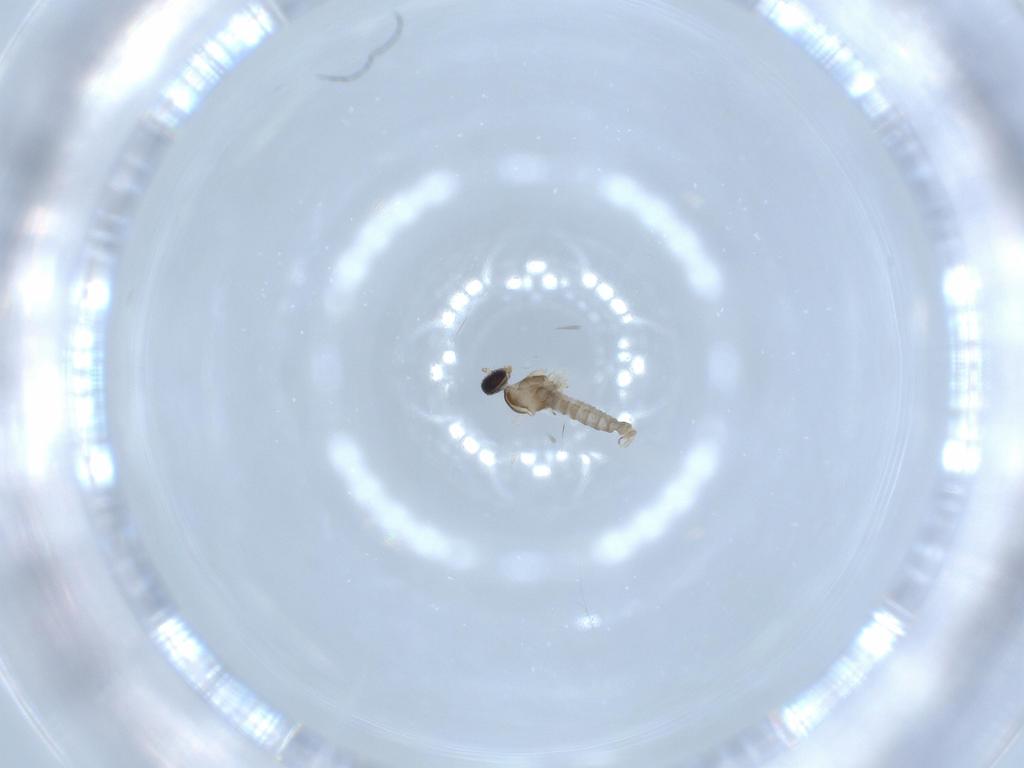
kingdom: Animalia
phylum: Arthropoda
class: Insecta
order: Diptera
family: Cecidomyiidae
